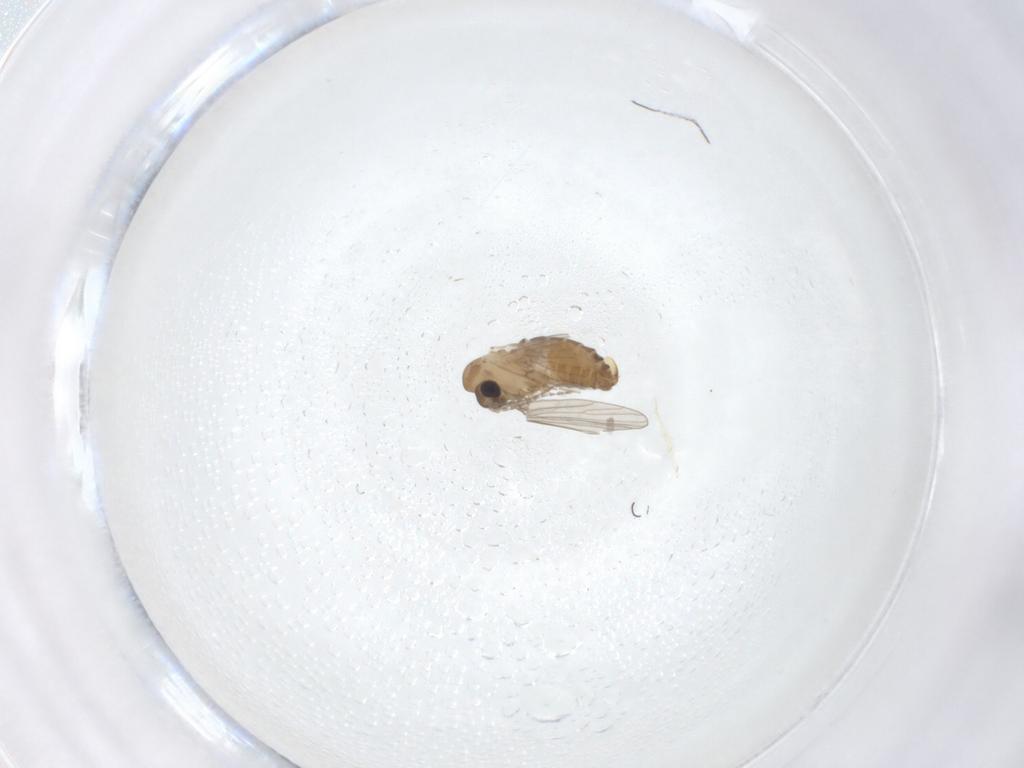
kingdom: Animalia
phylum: Arthropoda
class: Insecta
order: Diptera
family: Psychodidae
